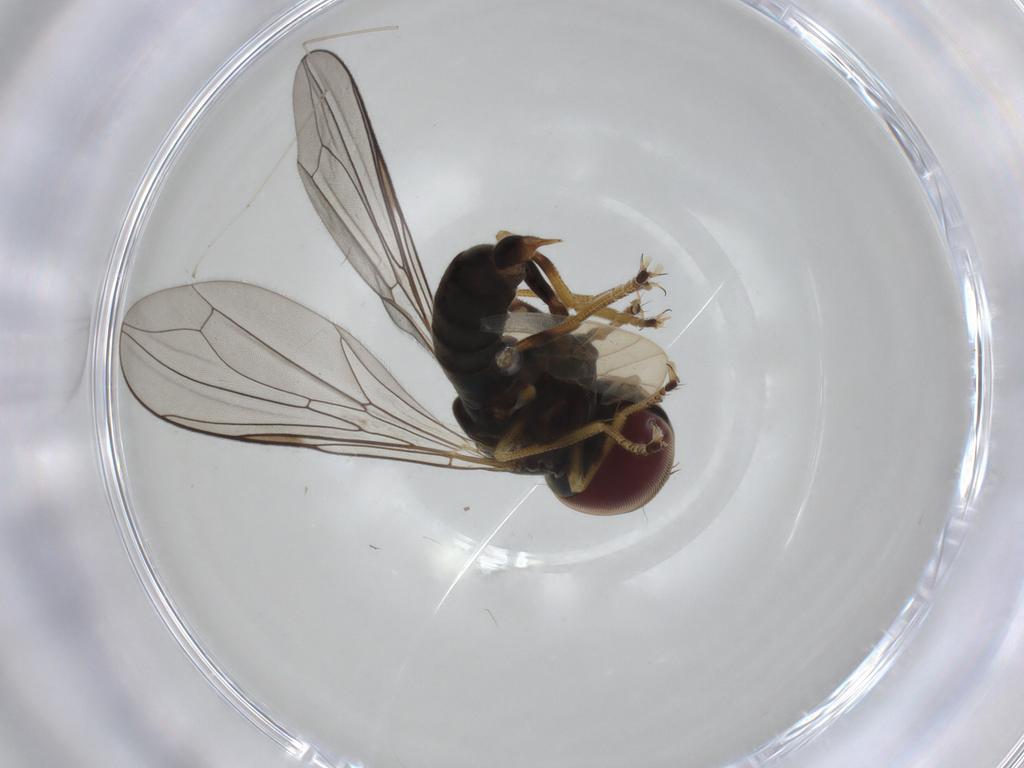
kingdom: Animalia
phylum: Arthropoda
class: Insecta
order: Diptera
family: Pipunculidae
